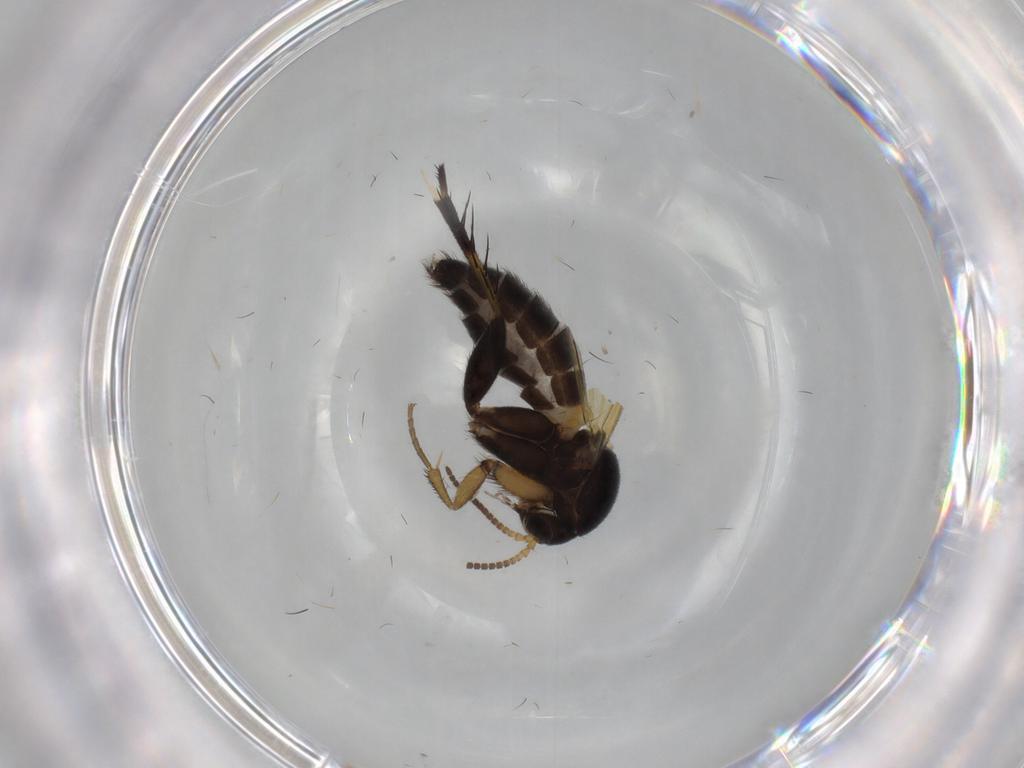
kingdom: Animalia
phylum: Arthropoda
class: Insecta
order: Diptera
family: Mycetophilidae
